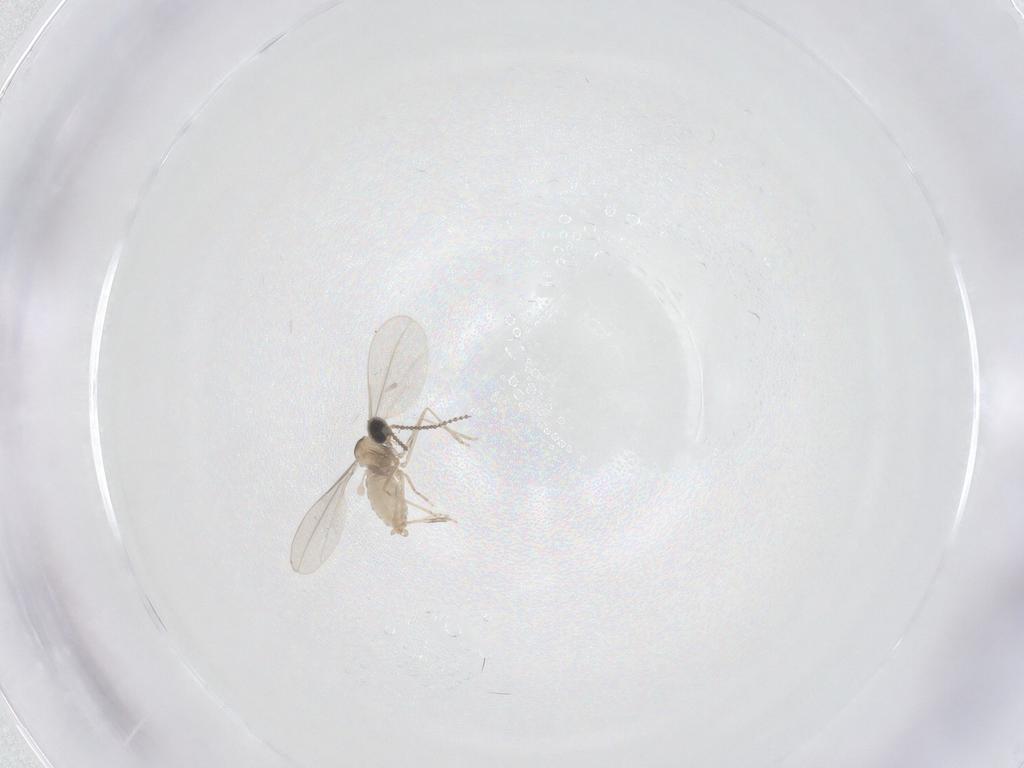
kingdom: Animalia
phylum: Arthropoda
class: Insecta
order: Diptera
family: Cecidomyiidae
